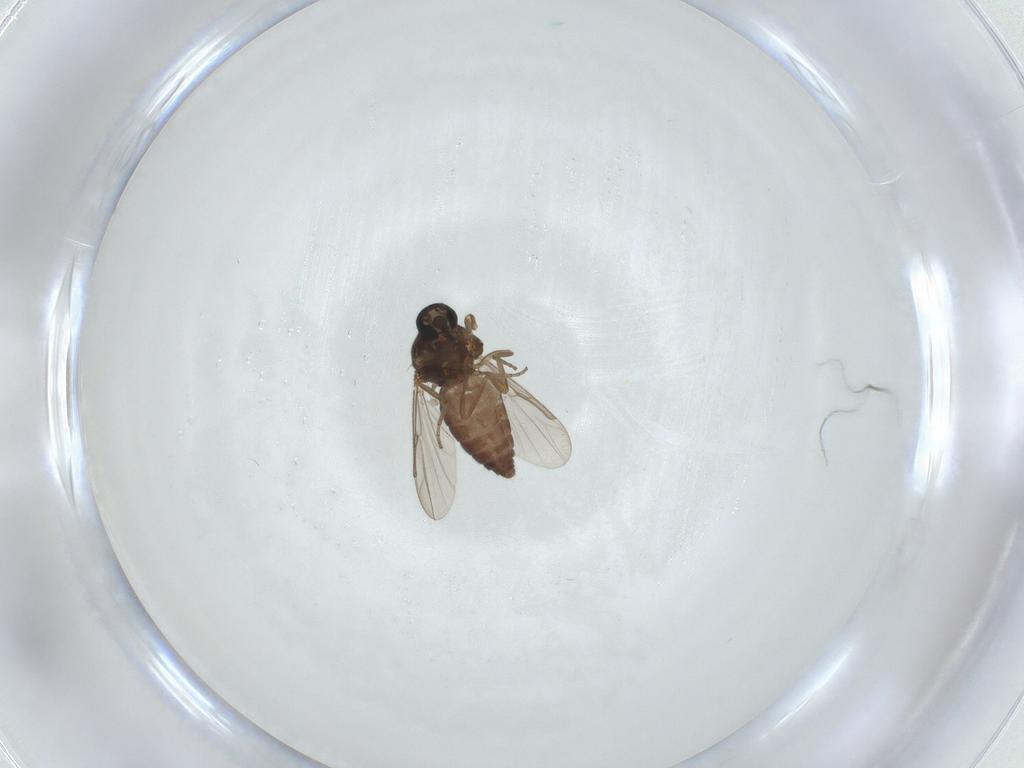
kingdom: Animalia
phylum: Arthropoda
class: Insecta
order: Diptera
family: Ceratopogonidae
